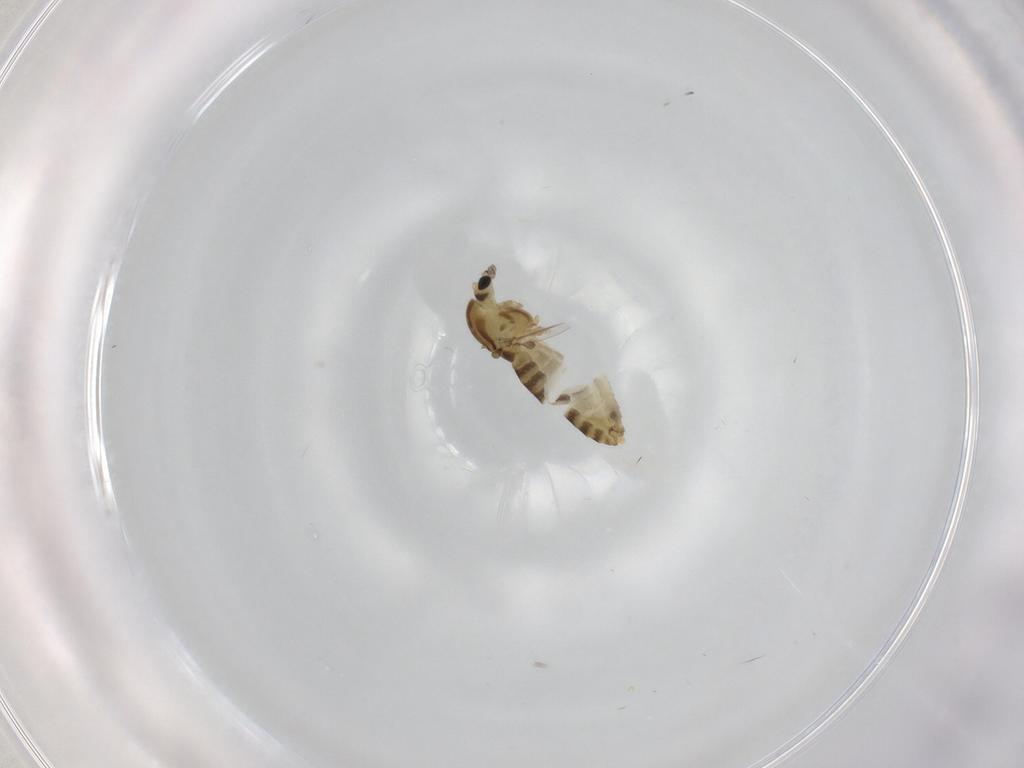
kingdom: Animalia
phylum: Arthropoda
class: Insecta
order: Diptera
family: Chironomidae
